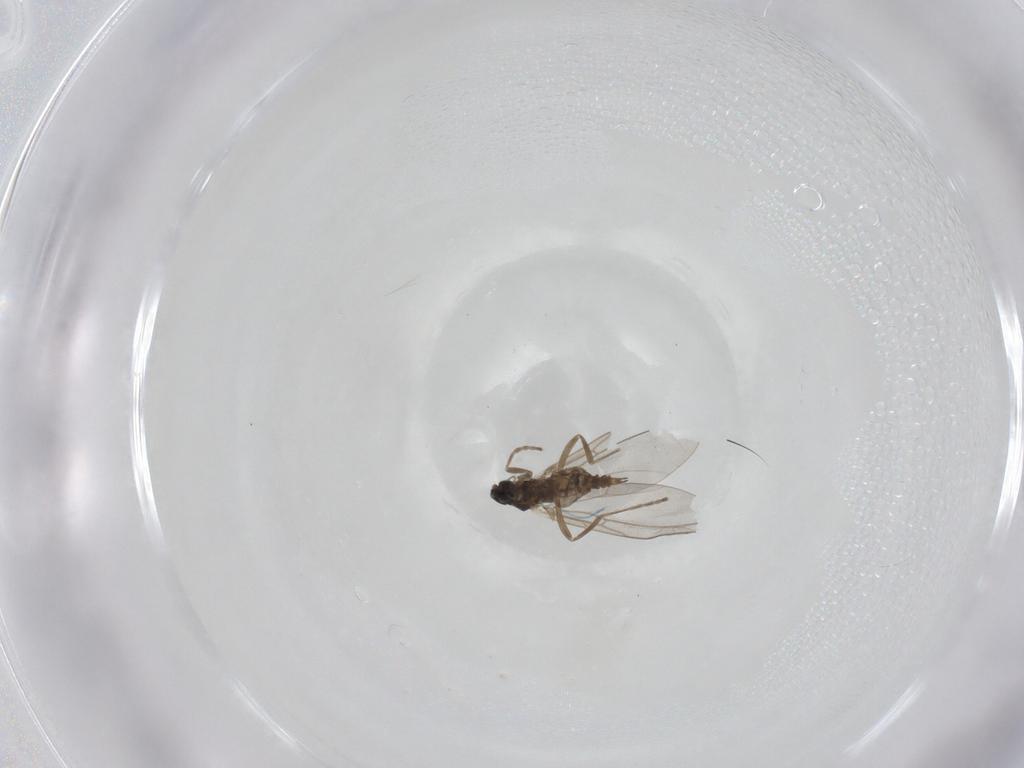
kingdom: Animalia
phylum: Arthropoda
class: Insecta
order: Diptera
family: Cecidomyiidae
